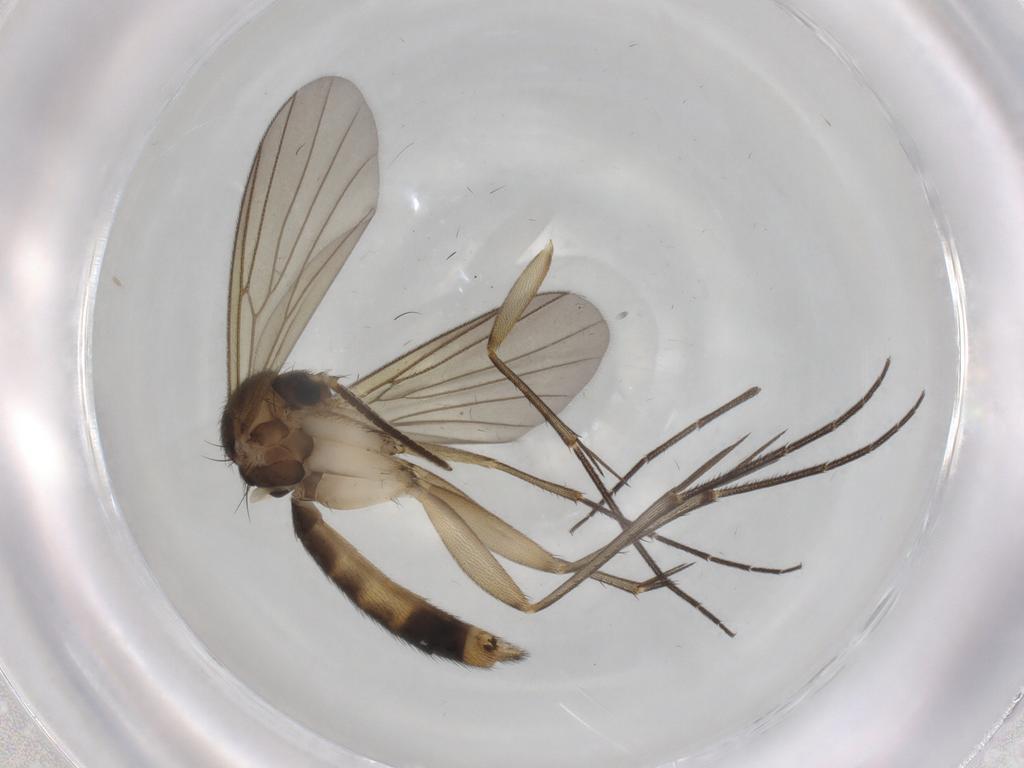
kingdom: Animalia
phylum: Arthropoda
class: Insecta
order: Diptera
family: Mycetophilidae
